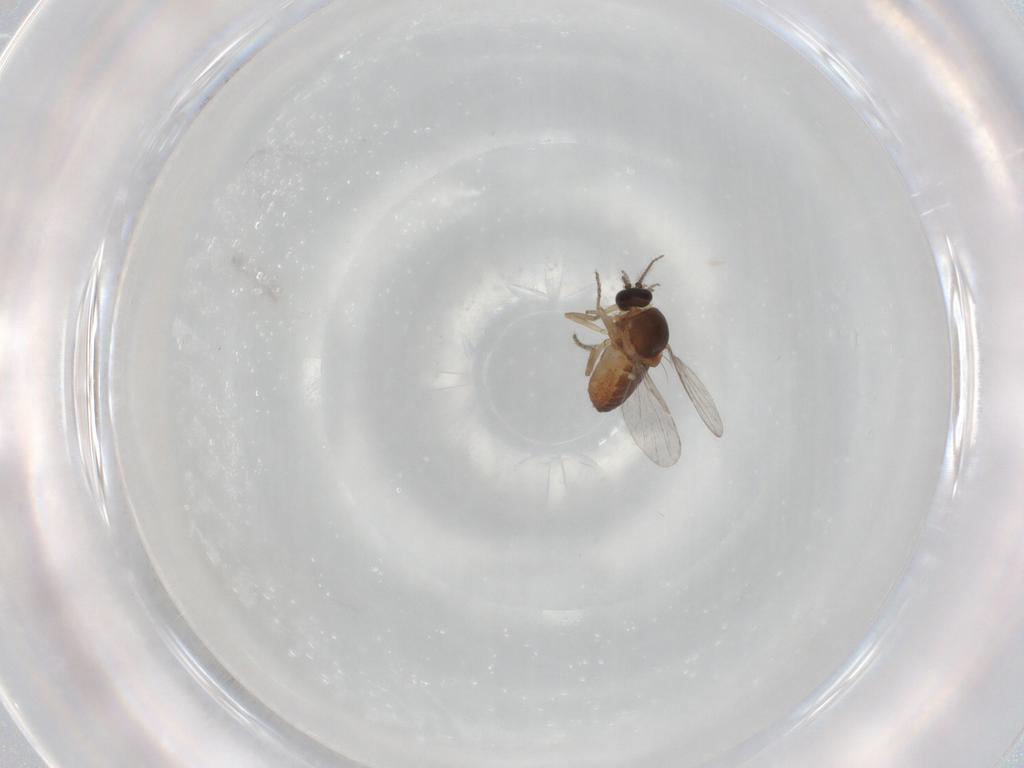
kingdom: Animalia
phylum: Arthropoda
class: Insecta
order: Diptera
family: Ceratopogonidae
